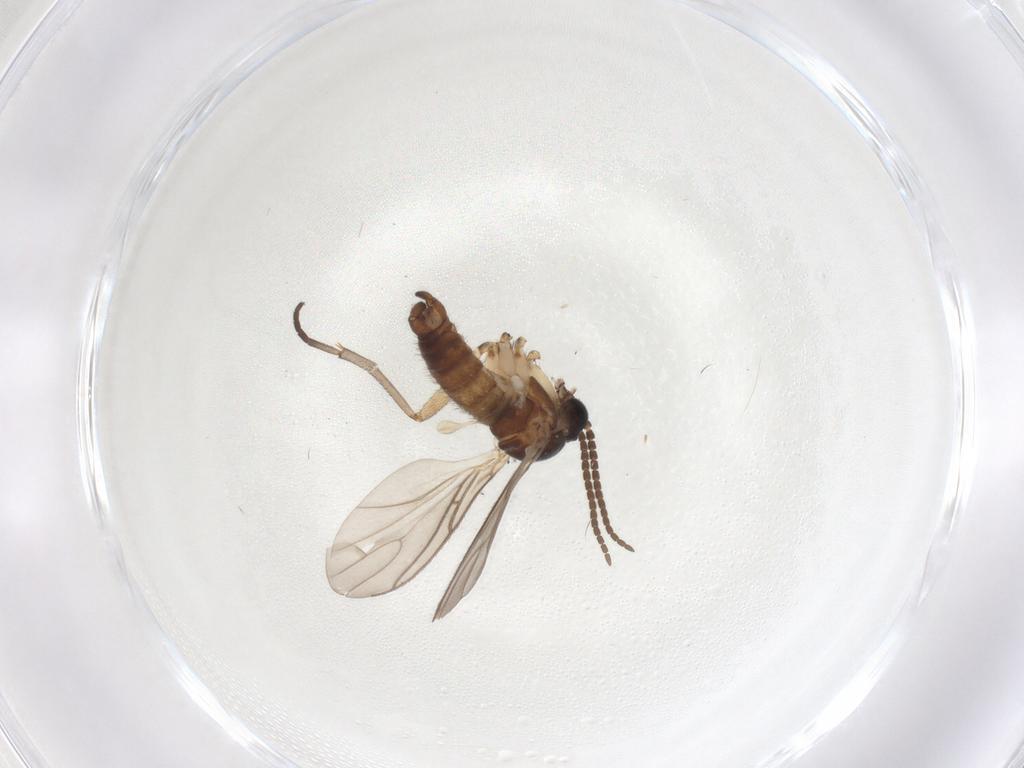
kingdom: Animalia
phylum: Arthropoda
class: Insecta
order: Diptera
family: Sciaridae
